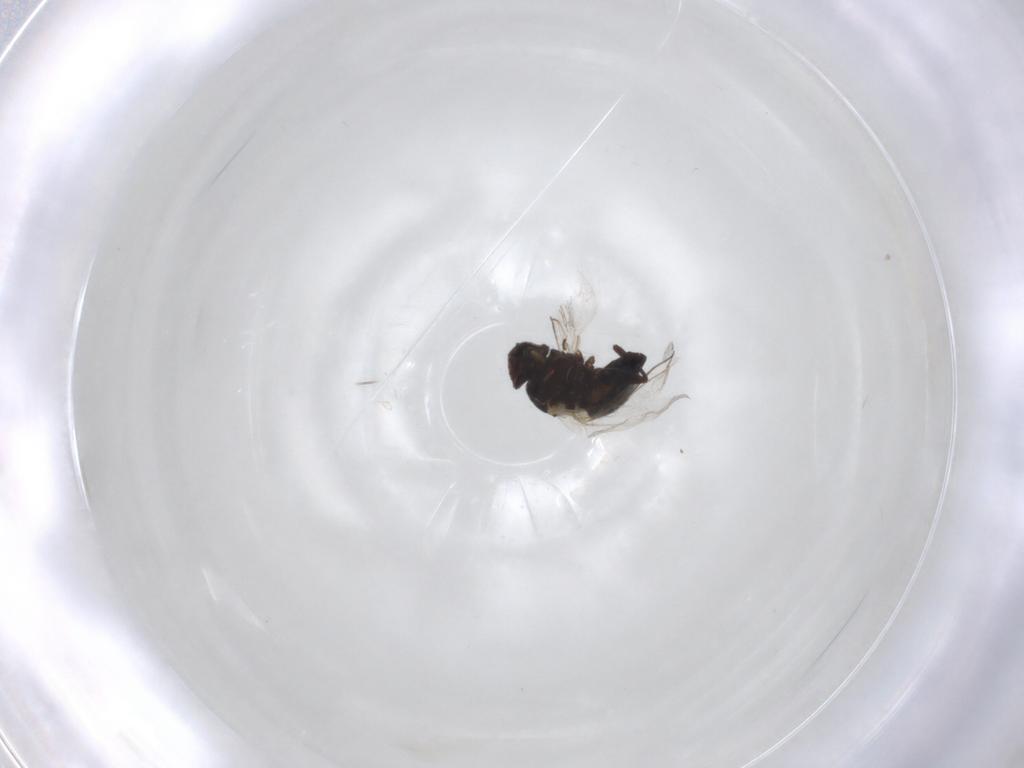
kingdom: Animalia
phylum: Arthropoda
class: Insecta
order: Diptera
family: Agromyzidae
